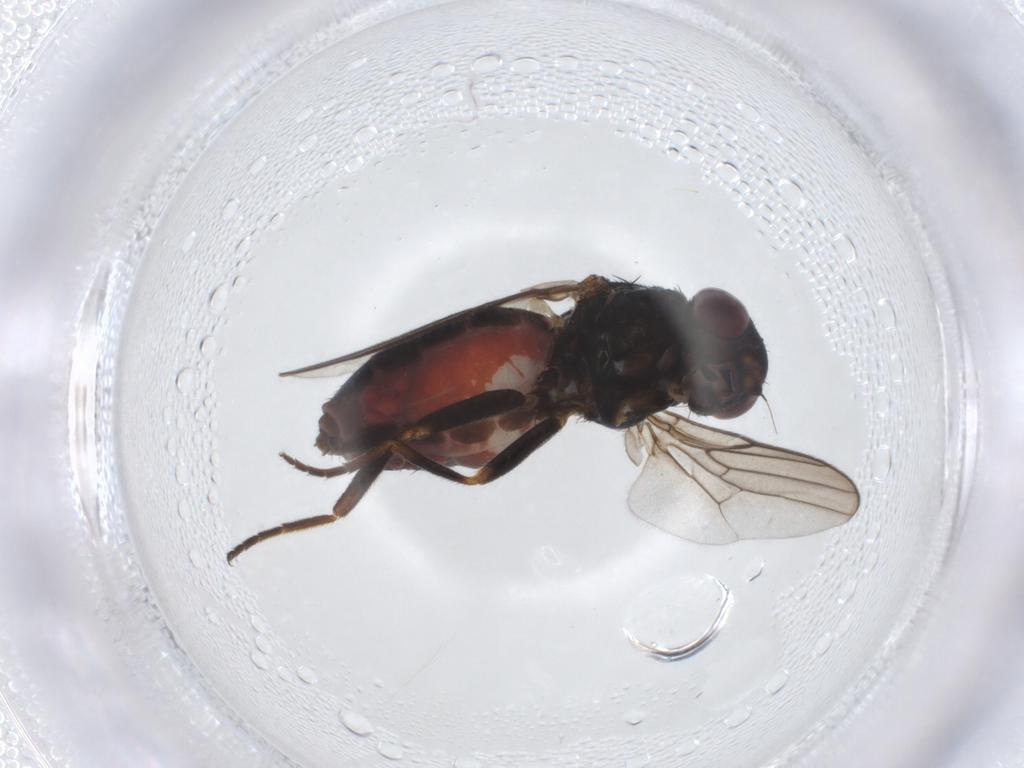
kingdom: Animalia
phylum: Arthropoda
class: Insecta
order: Diptera
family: Chloropidae
